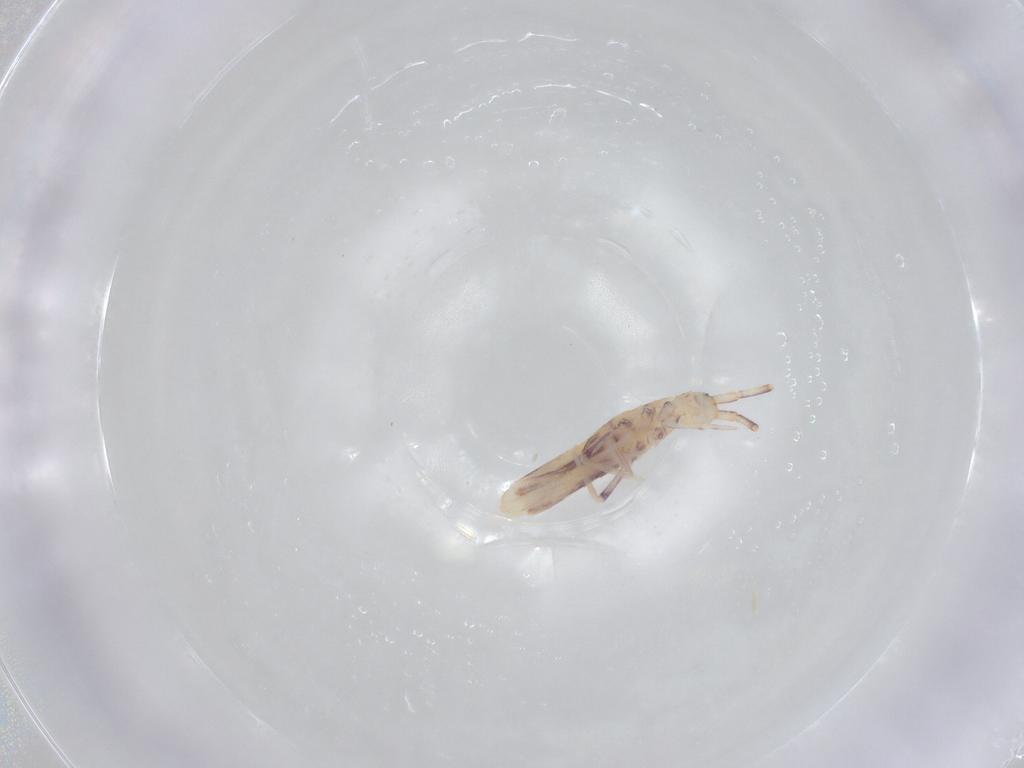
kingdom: Animalia
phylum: Arthropoda
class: Collembola
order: Poduromorpha
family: Hypogastruridae
